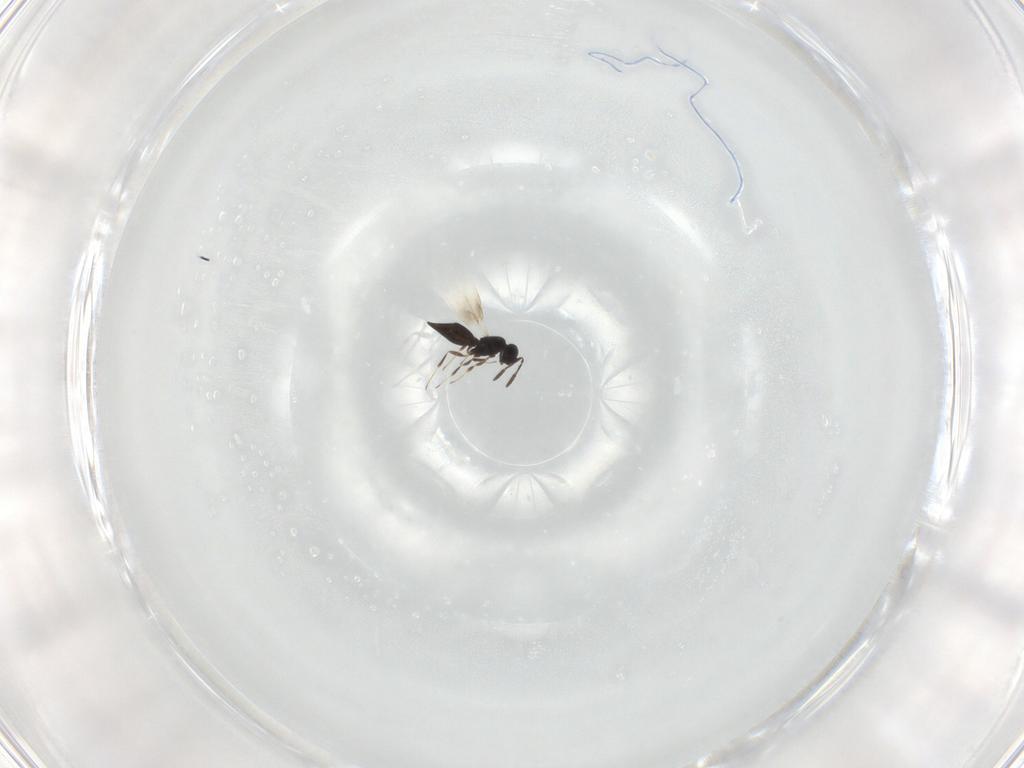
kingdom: Animalia
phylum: Arthropoda
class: Insecta
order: Hymenoptera
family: Scelionidae
